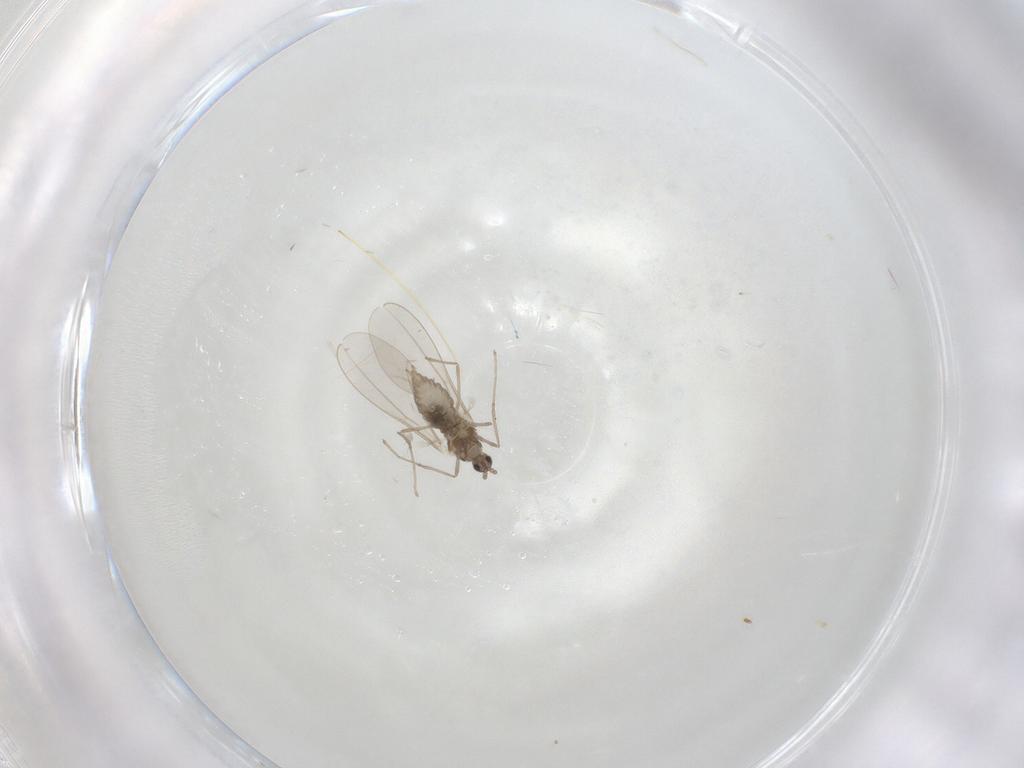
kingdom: Animalia
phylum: Arthropoda
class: Insecta
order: Diptera
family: Cecidomyiidae
